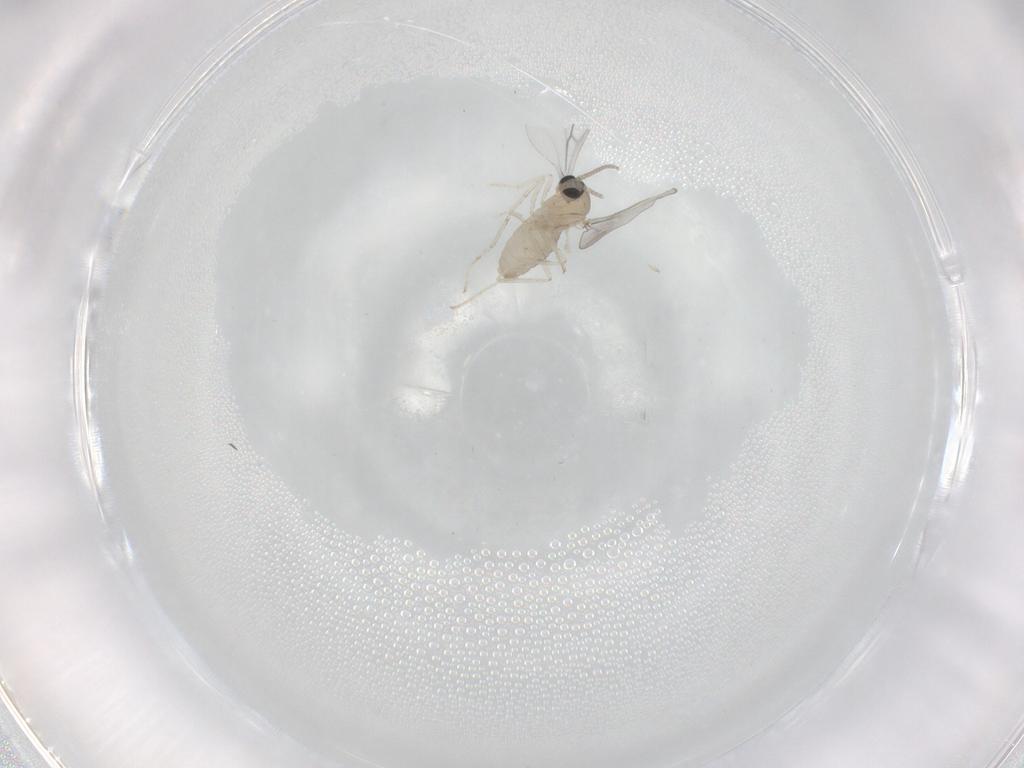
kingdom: Animalia
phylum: Arthropoda
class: Insecta
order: Diptera
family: Cecidomyiidae
